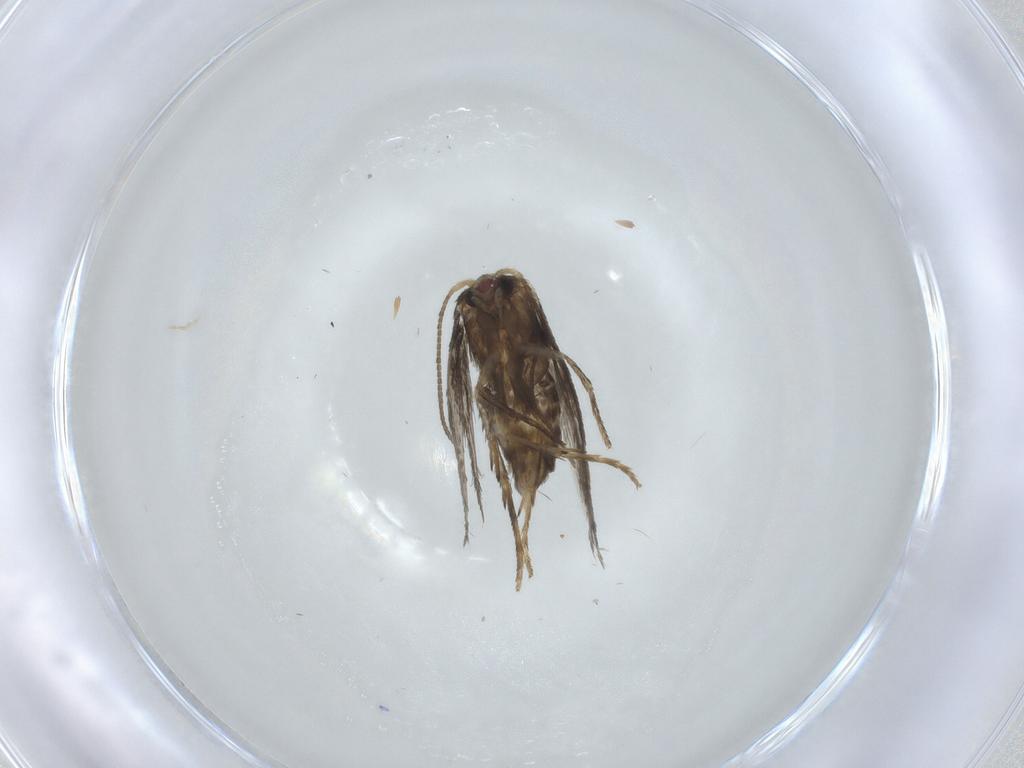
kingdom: Animalia
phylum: Arthropoda
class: Insecta
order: Lepidoptera
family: Nepticulidae
